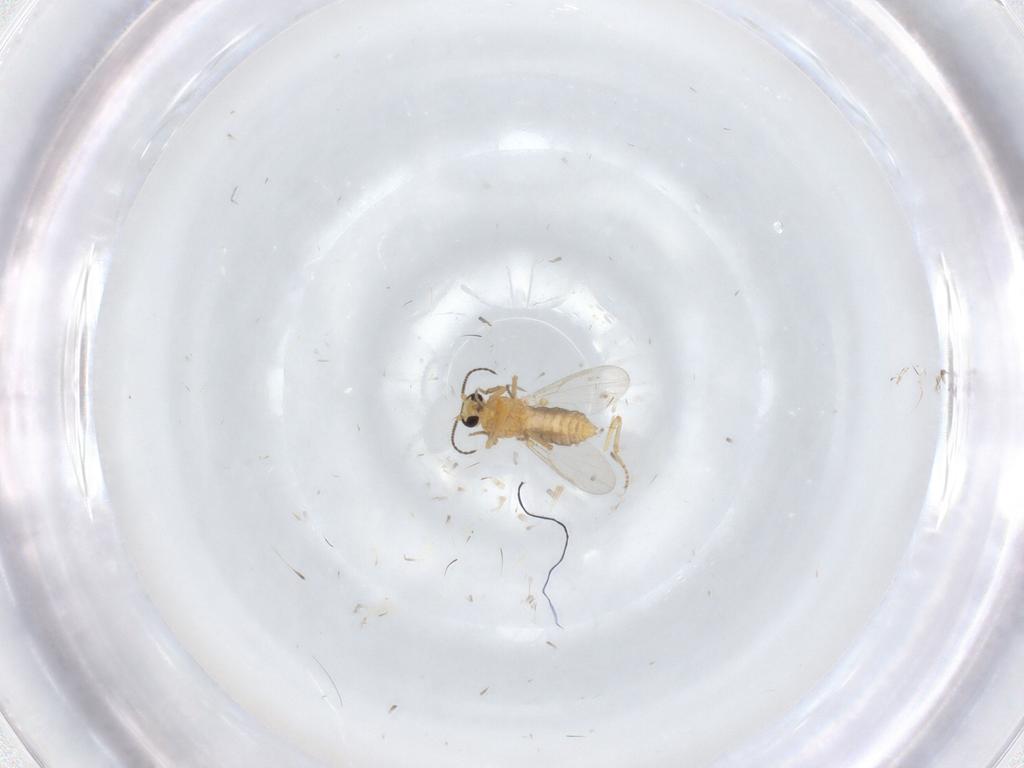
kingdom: Animalia
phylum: Arthropoda
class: Insecta
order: Diptera
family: Ceratopogonidae
